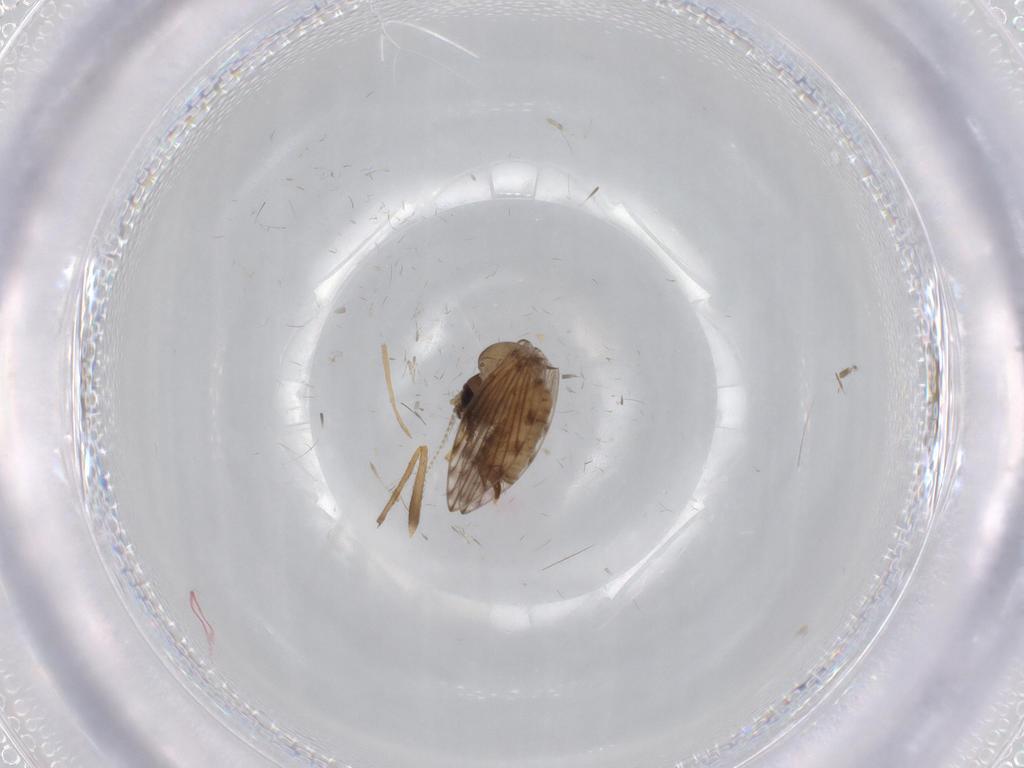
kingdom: Animalia
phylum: Arthropoda
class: Insecta
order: Diptera
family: Psychodidae
